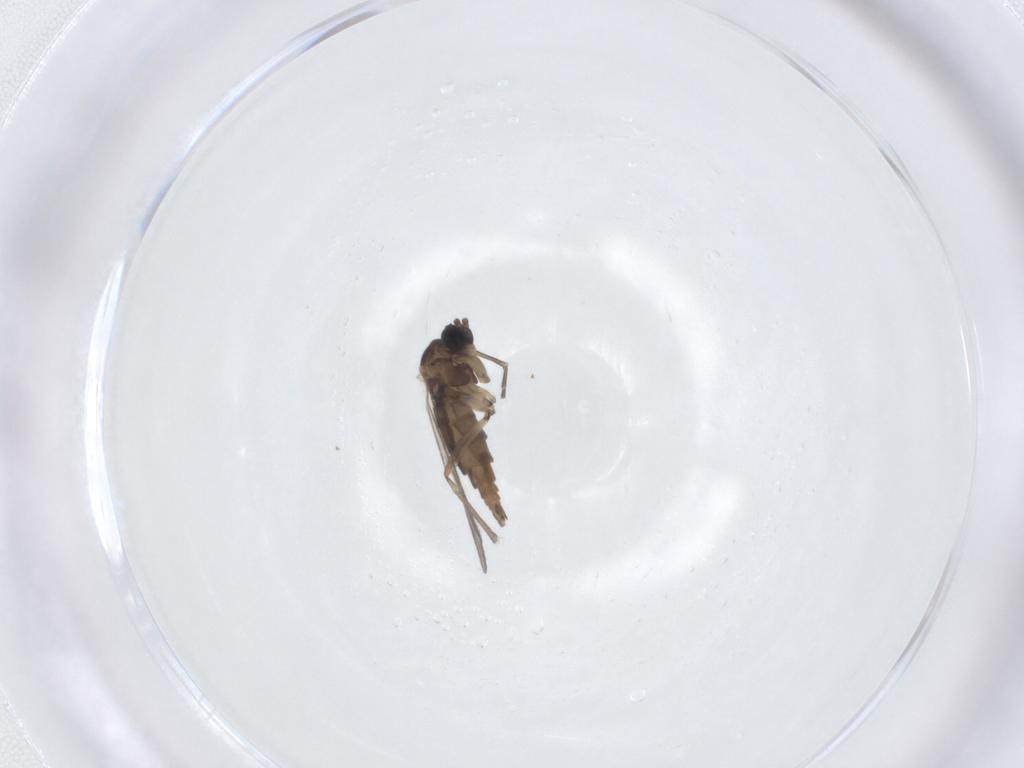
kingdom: Animalia
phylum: Arthropoda
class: Insecta
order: Diptera
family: Sciaridae
